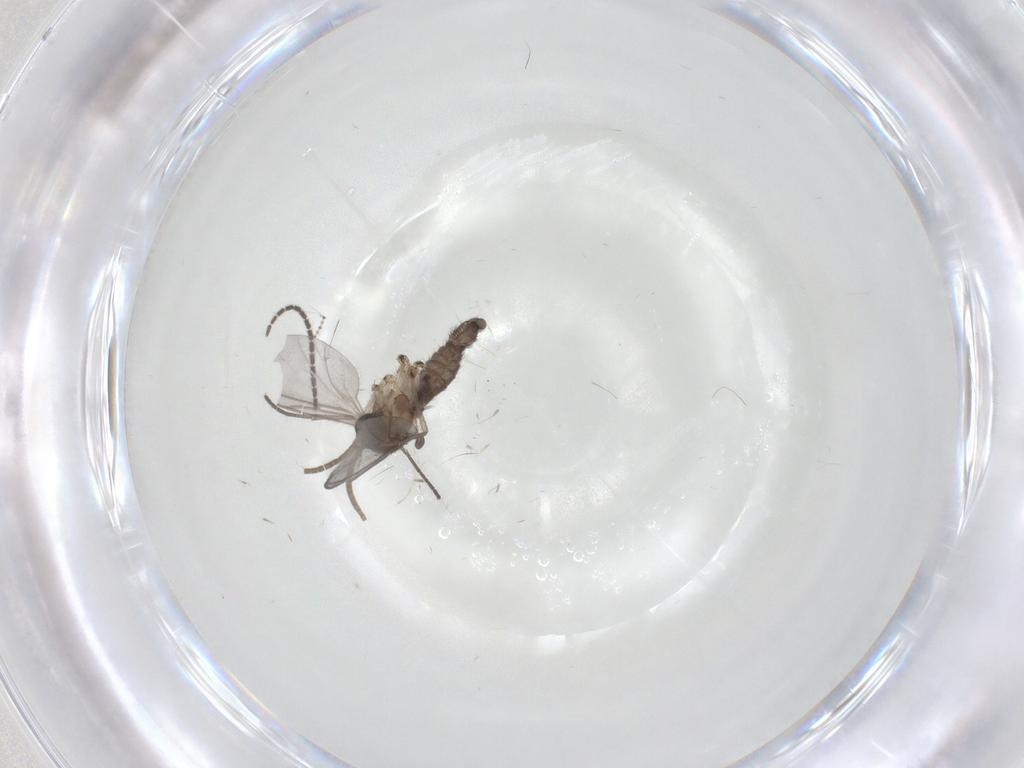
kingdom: Animalia
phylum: Arthropoda
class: Insecta
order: Diptera
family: Sciaridae
